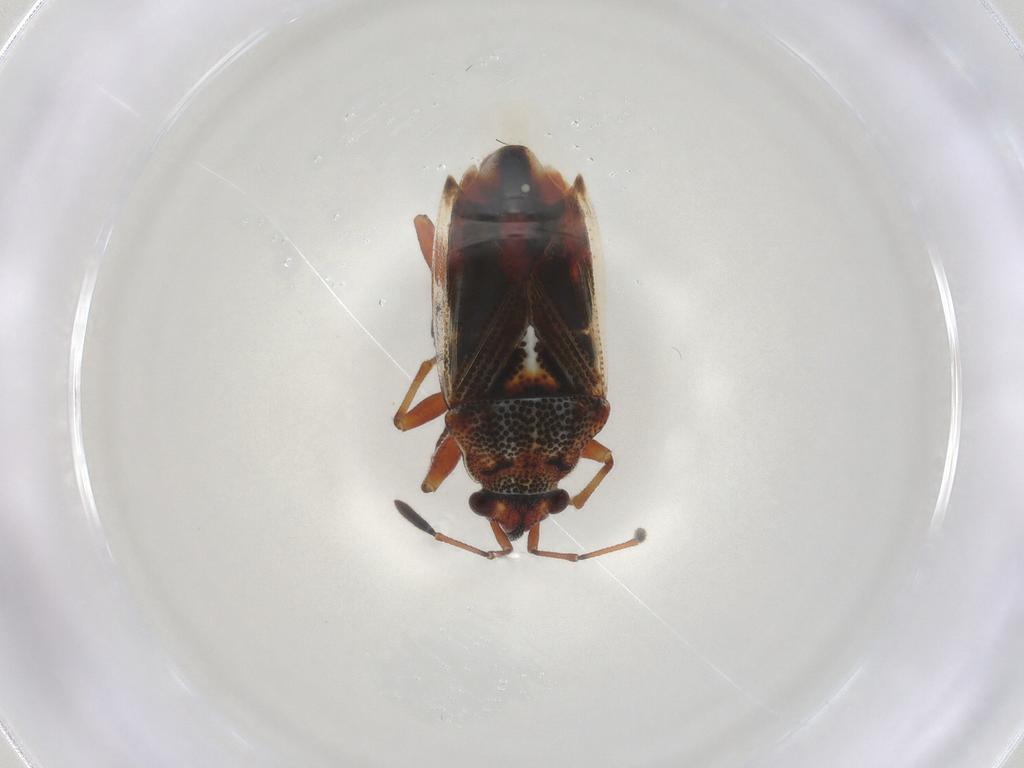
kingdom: Animalia
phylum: Arthropoda
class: Insecta
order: Hemiptera
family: Lygaeidae
